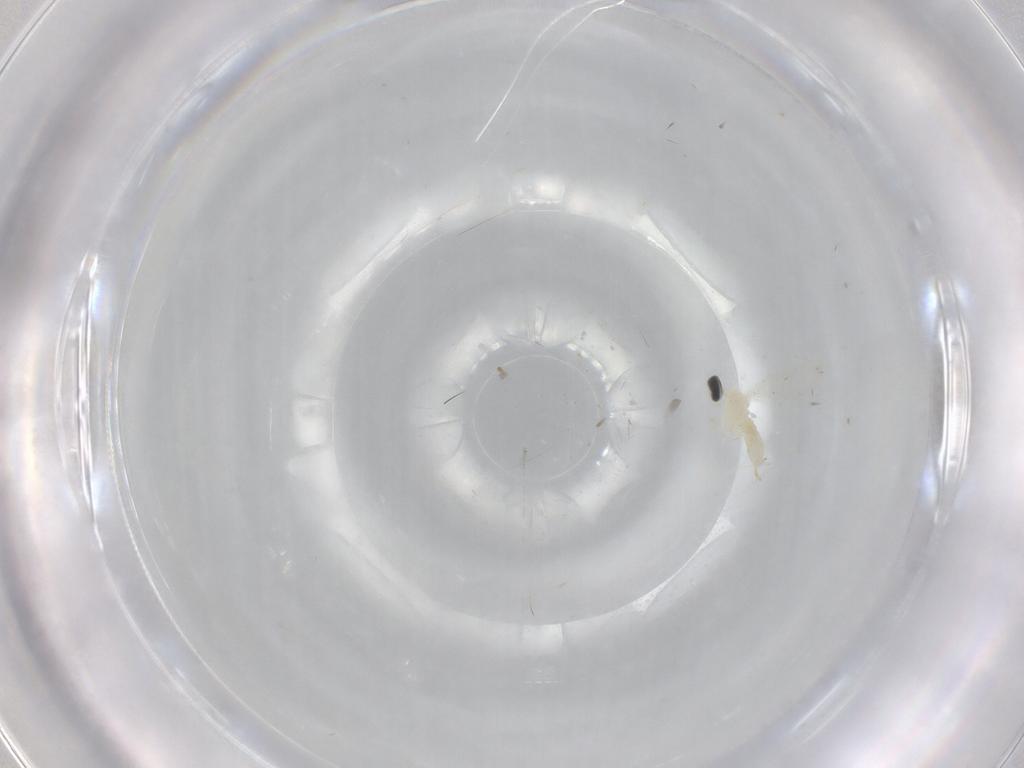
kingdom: Animalia
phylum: Arthropoda
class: Insecta
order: Diptera
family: Cecidomyiidae
